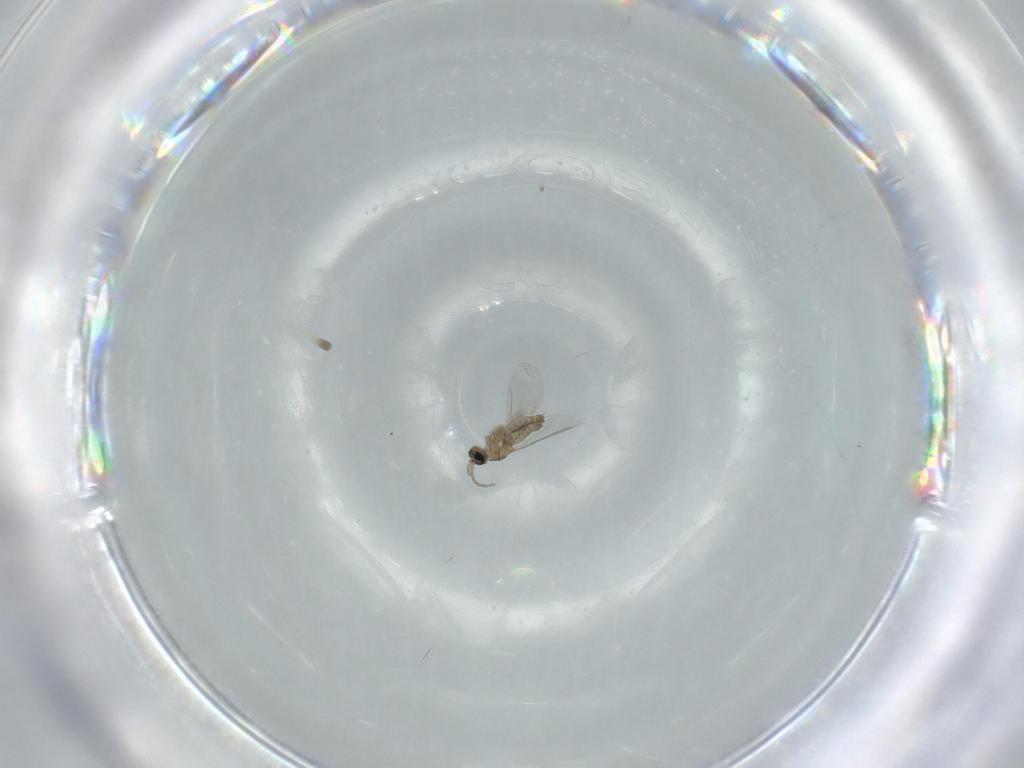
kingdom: Animalia
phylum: Arthropoda
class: Insecta
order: Diptera
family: Cecidomyiidae
